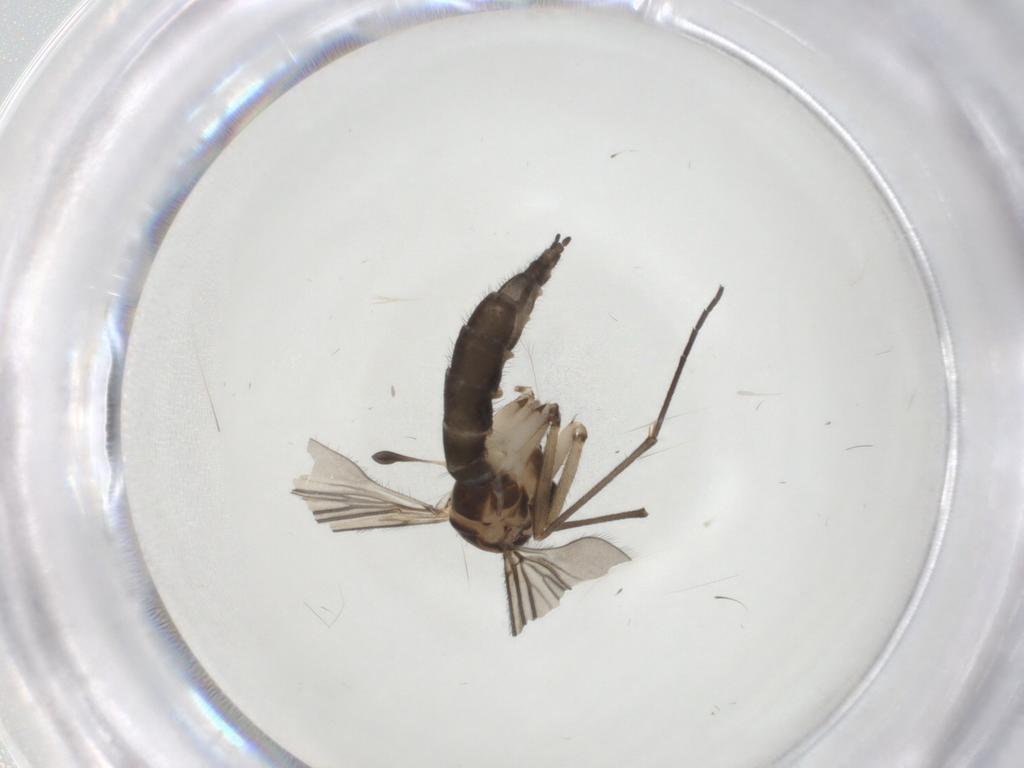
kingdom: Animalia
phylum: Arthropoda
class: Insecta
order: Diptera
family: Sciaridae
